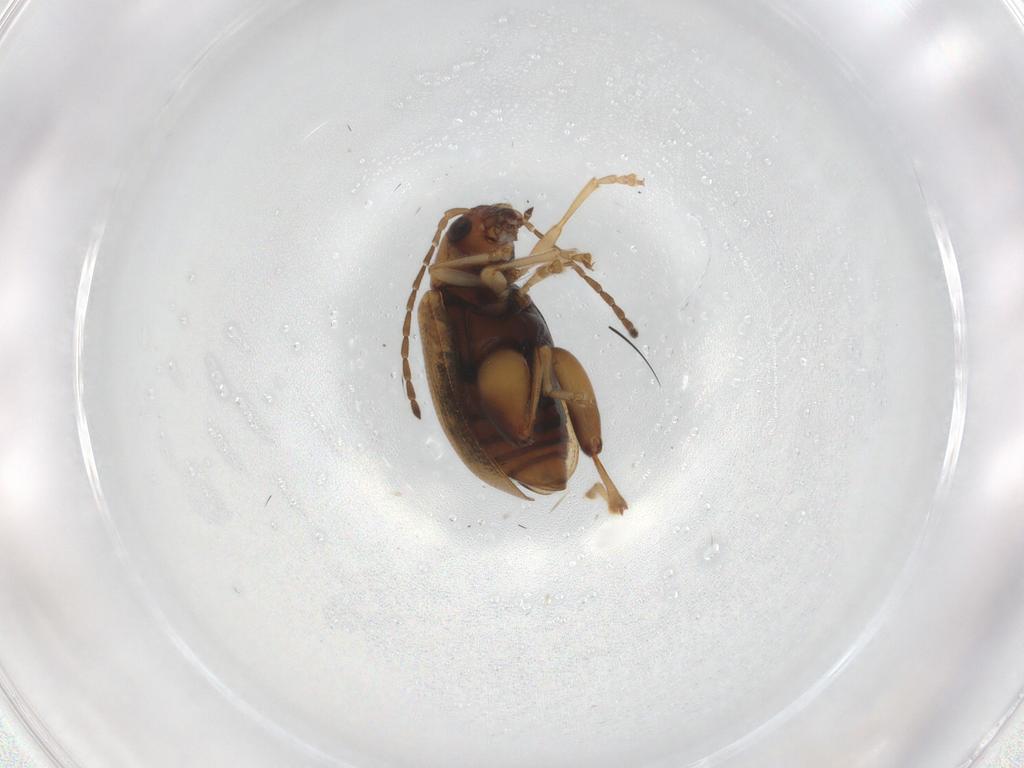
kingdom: Animalia
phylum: Arthropoda
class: Insecta
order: Coleoptera
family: Chrysomelidae
